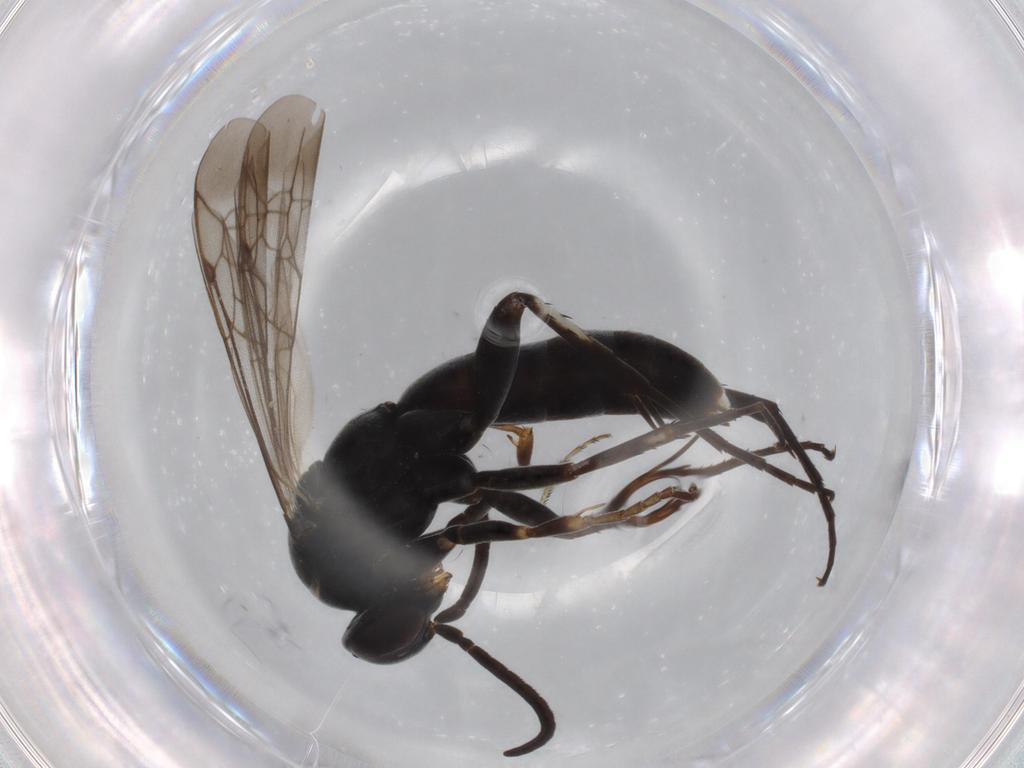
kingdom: Animalia
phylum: Arthropoda
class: Insecta
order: Hymenoptera
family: Pompilidae
